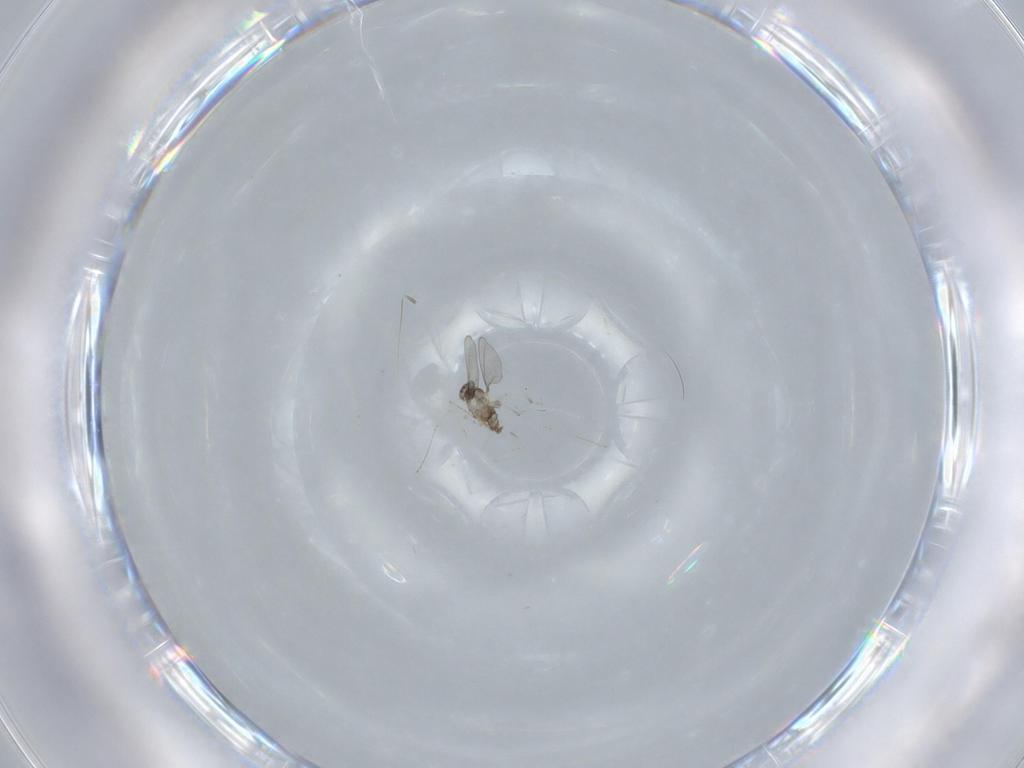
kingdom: Animalia
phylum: Arthropoda
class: Insecta
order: Diptera
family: Cecidomyiidae
